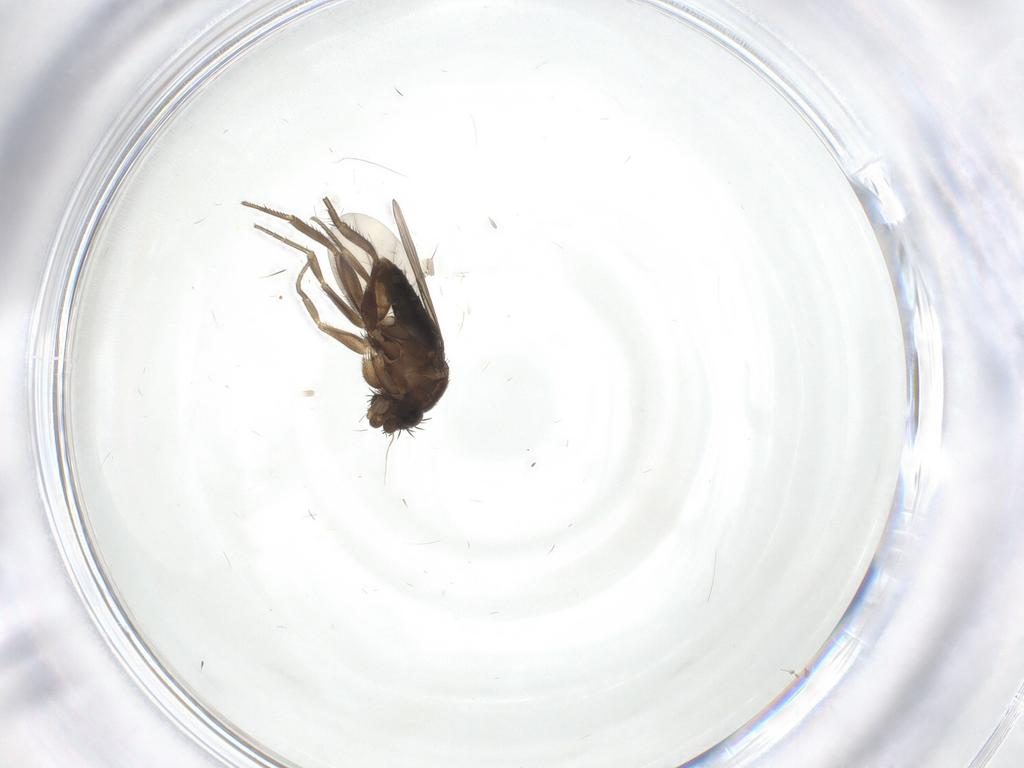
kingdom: Animalia
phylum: Arthropoda
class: Insecta
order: Diptera
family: Phoridae
